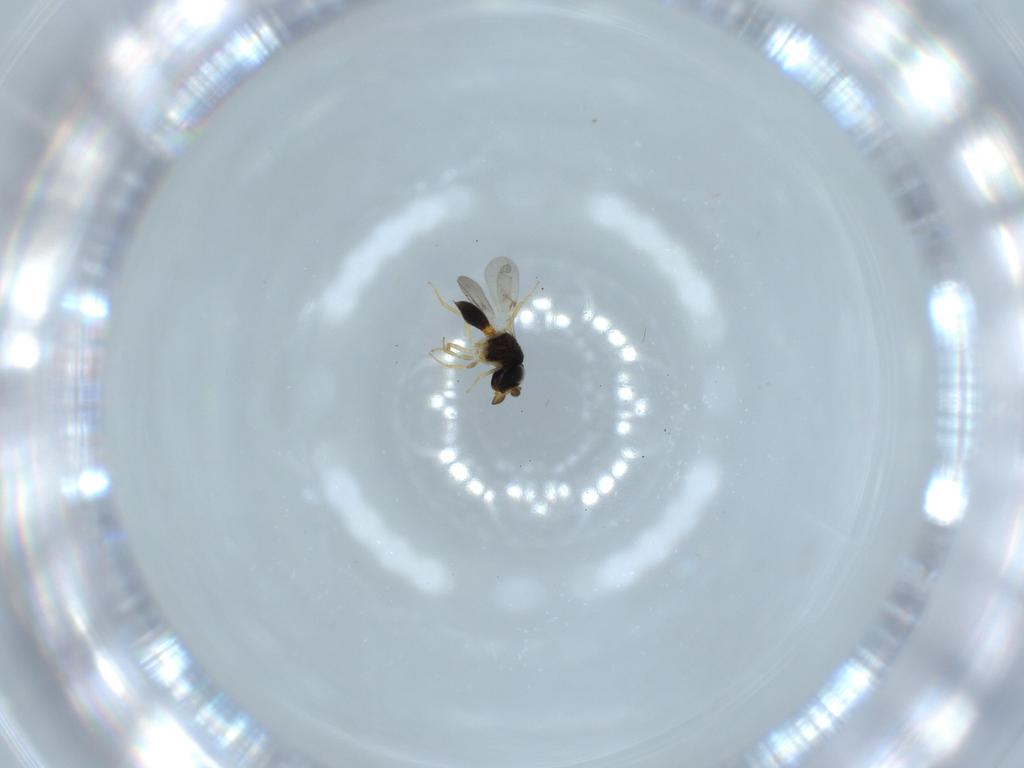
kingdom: Animalia
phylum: Arthropoda
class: Insecta
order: Hymenoptera
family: Scelionidae
